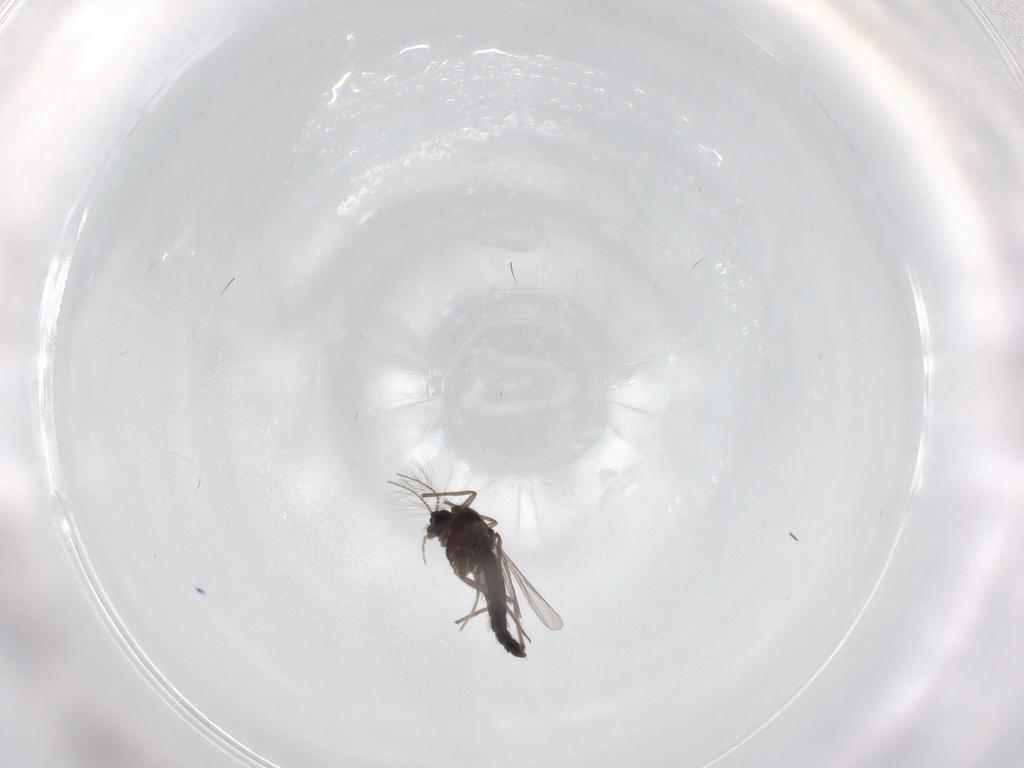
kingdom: Animalia
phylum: Arthropoda
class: Insecta
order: Diptera
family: Chironomidae
